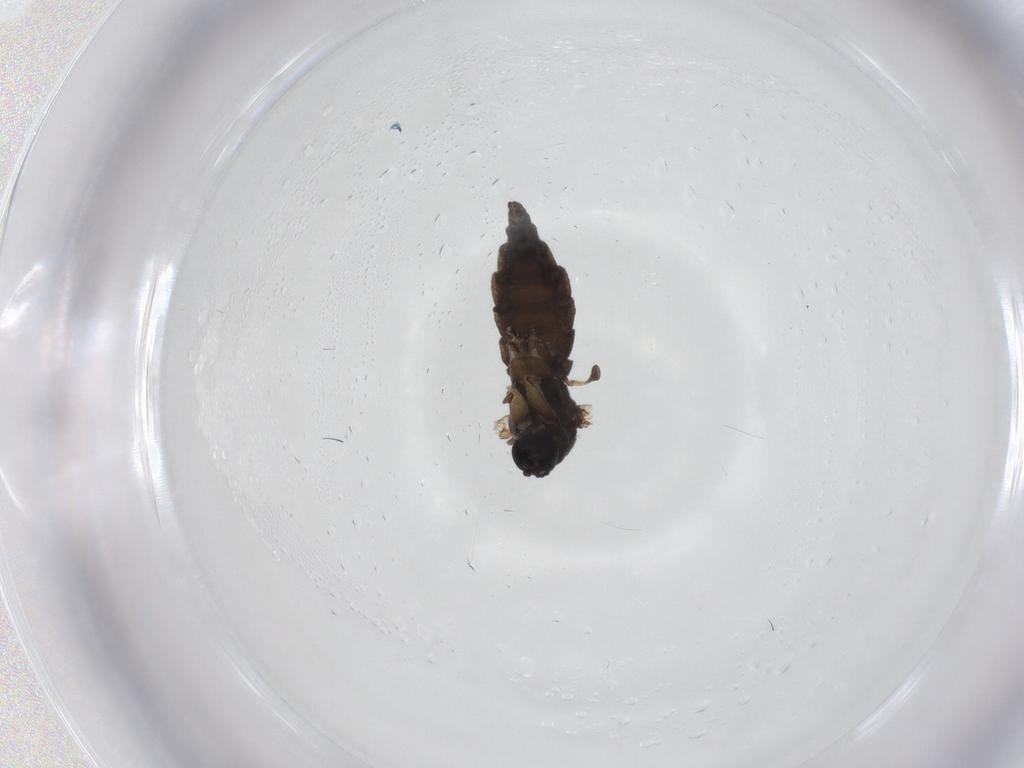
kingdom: Animalia
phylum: Arthropoda
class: Insecta
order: Diptera
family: Sciaridae
